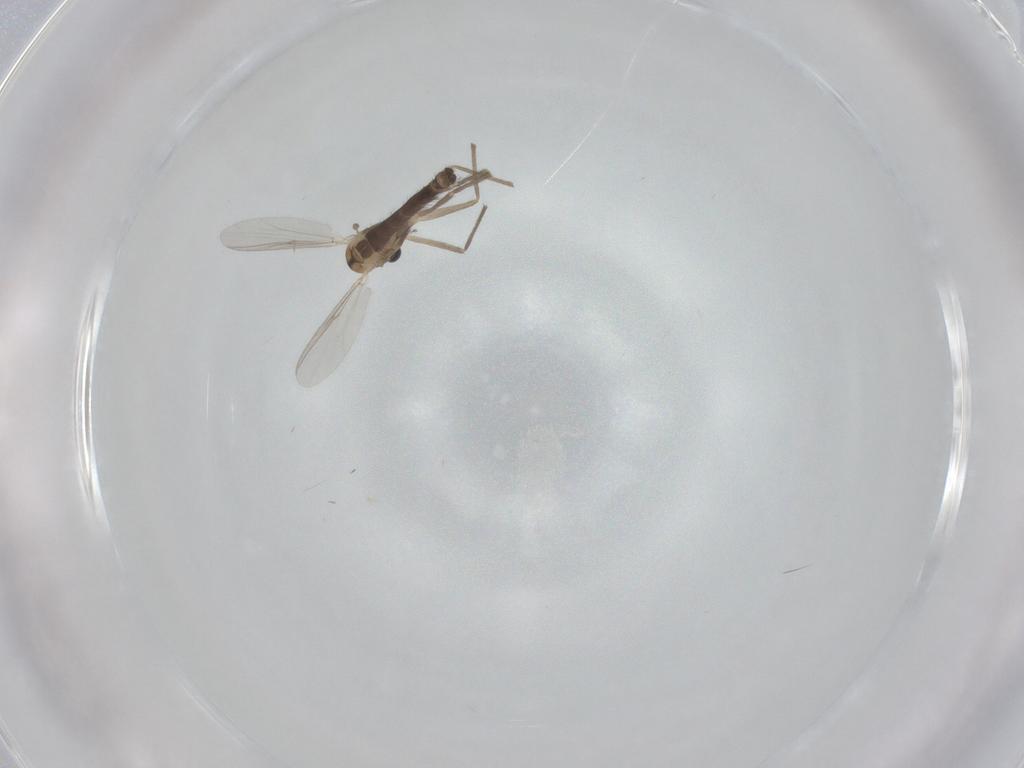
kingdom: Animalia
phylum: Arthropoda
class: Insecta
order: Diptera
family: Chironomidae
